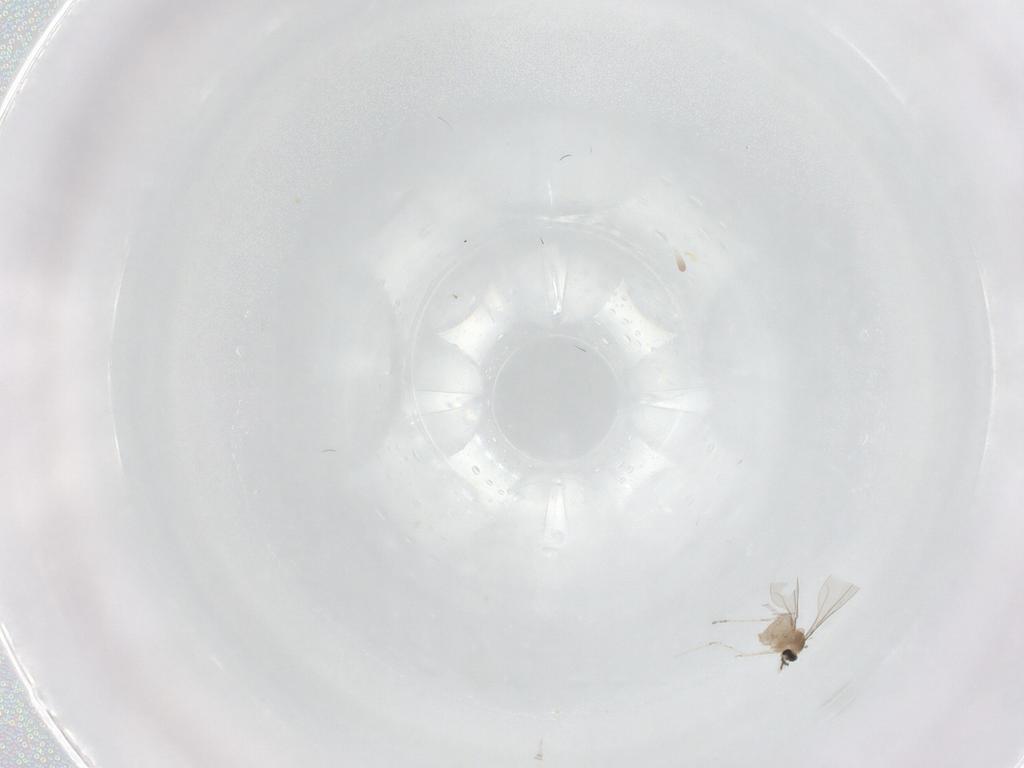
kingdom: Animalia
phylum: Arthropoda
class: Insecta
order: Diptera
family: Cecidomyiidae
